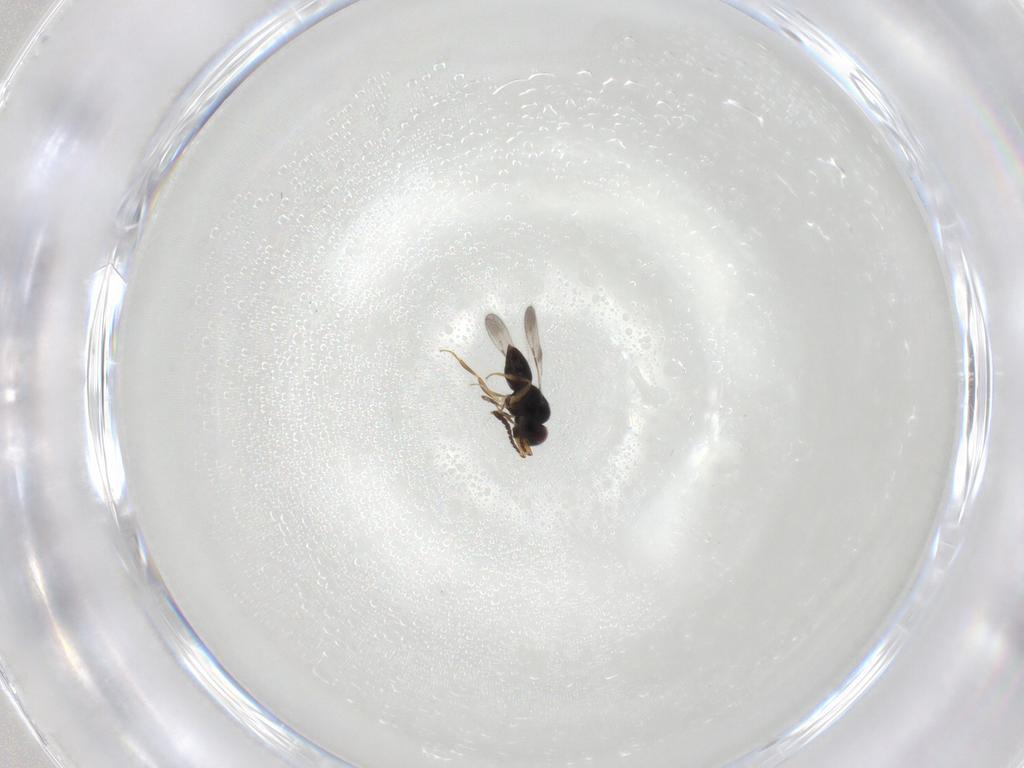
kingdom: Animalia
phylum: Arthropoda
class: Insecta
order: Hymenoptera
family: Ceraphronidae
